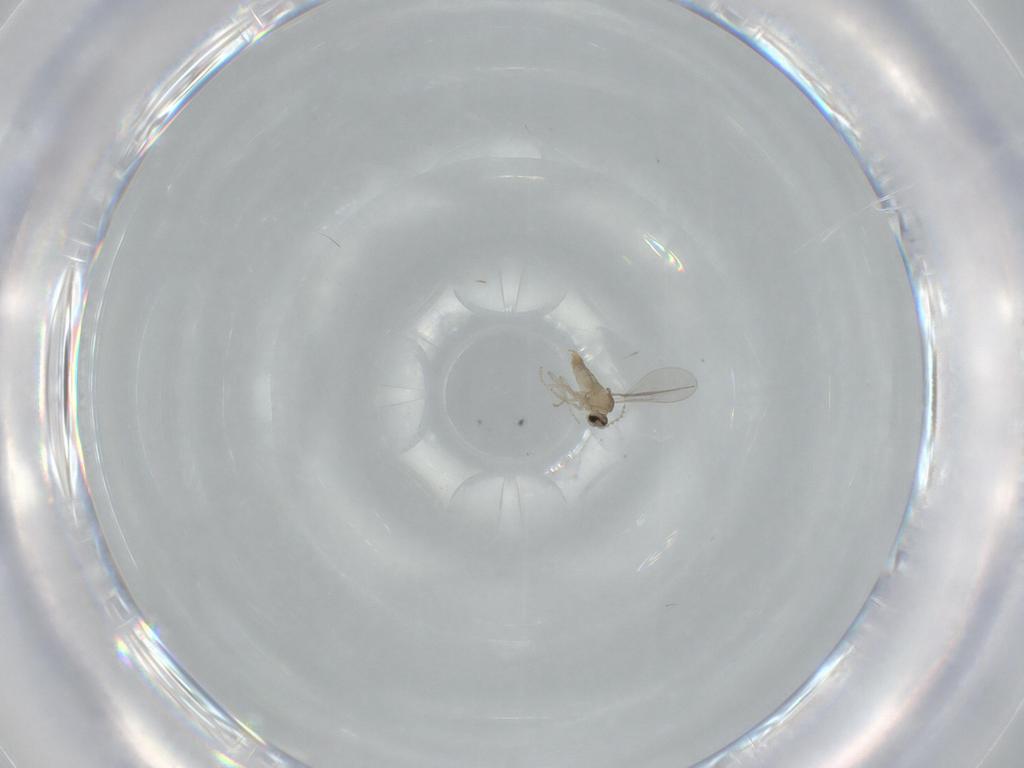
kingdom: Animalia
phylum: Arthropoda
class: Insecta
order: Diptera
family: Cecidomyiidae
